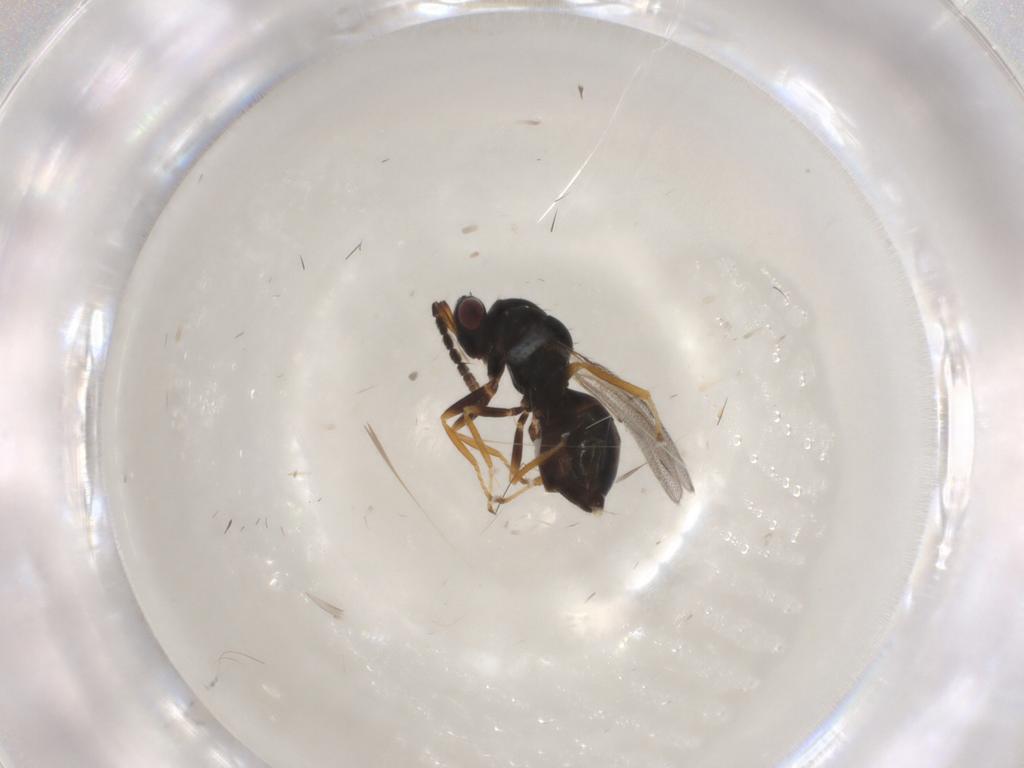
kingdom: Animalia
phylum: Arthropoda
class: Insecta
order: Hymenoptera
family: Eulophidae
